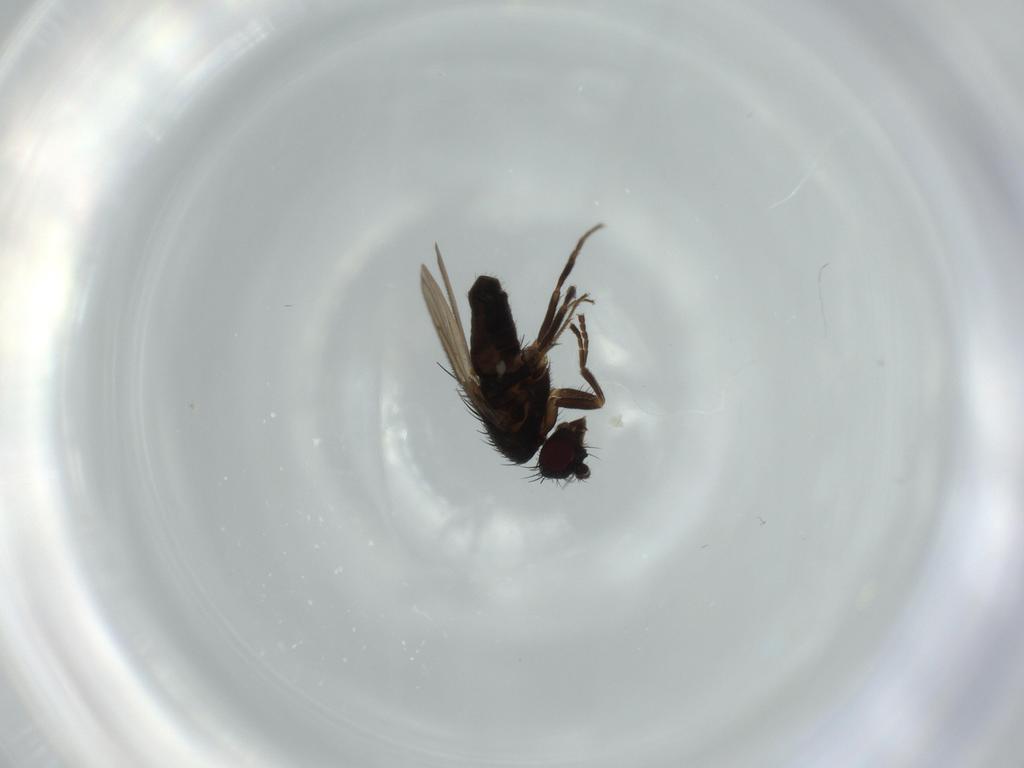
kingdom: Animalia
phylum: Arthropoda
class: Insecta
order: Diptera
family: Sphaeroceridae
